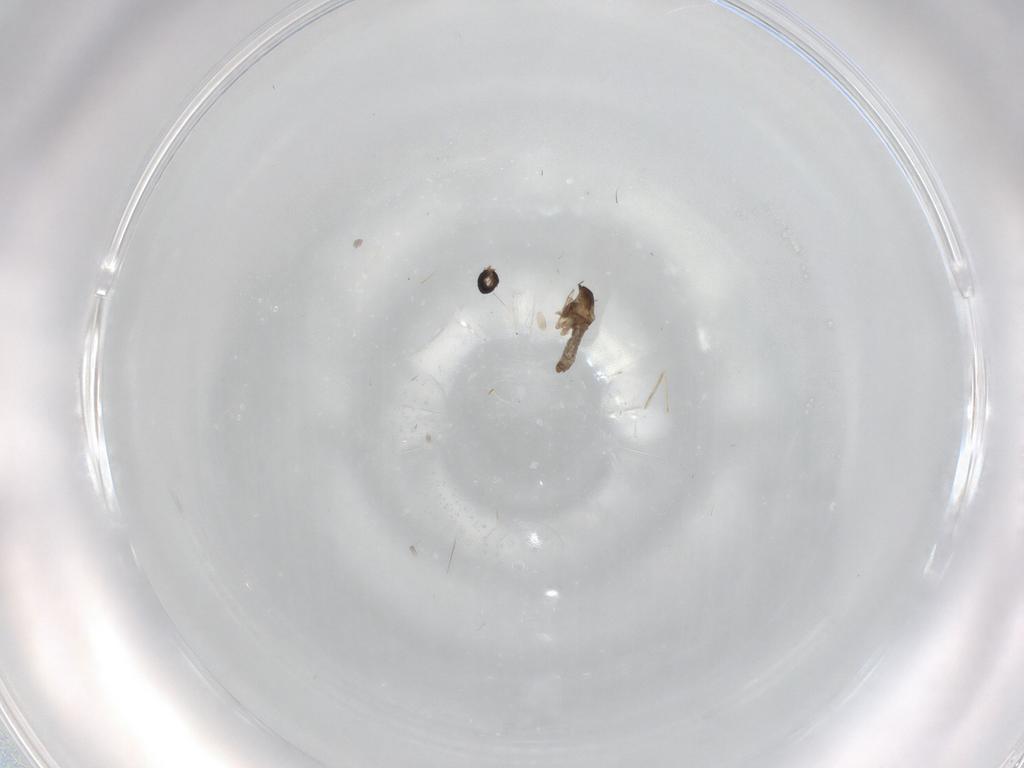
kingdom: Animalia
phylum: Arthropoda
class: Insecta
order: Diptera
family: Cecidomyiidae
